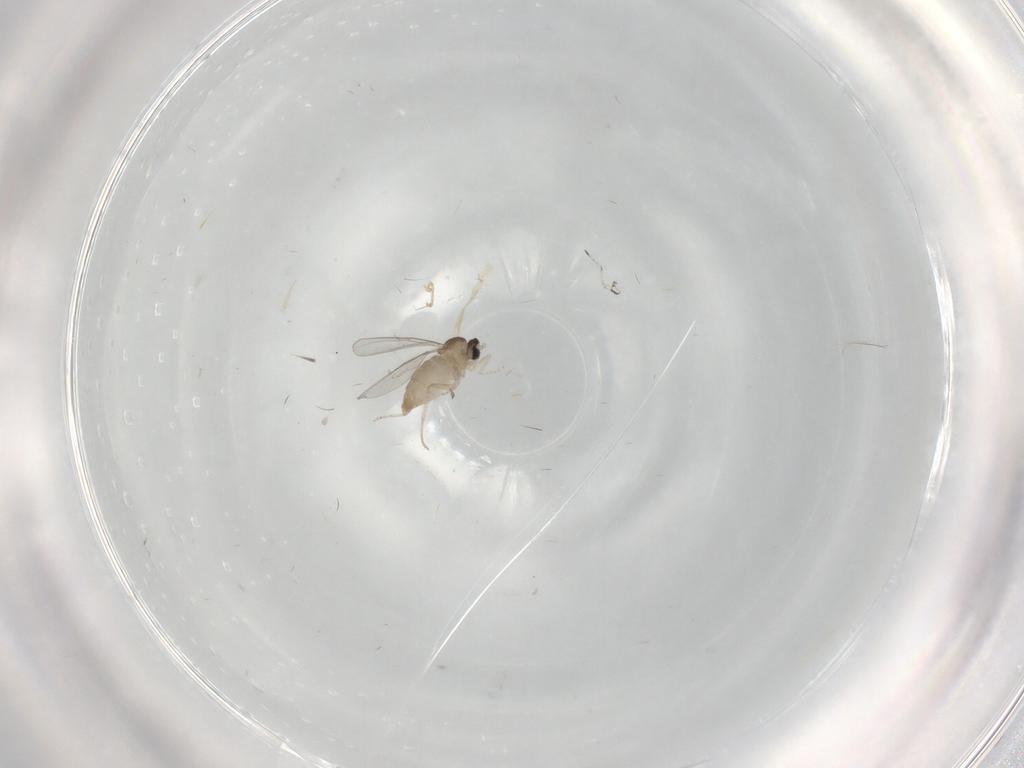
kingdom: Animalia
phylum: Arthropoda
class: Insecta
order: Diptera
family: Cecidomyiidae
